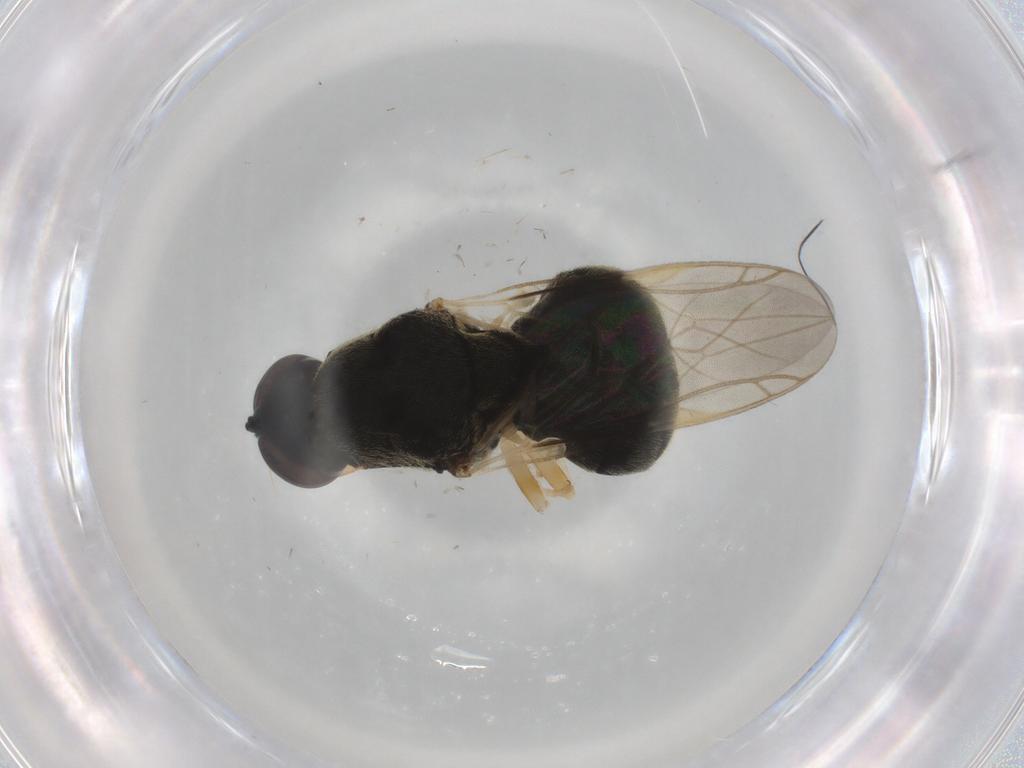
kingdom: Animalia
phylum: Arthropoda
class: Insecta
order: Diptera
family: Stratiomyidae
